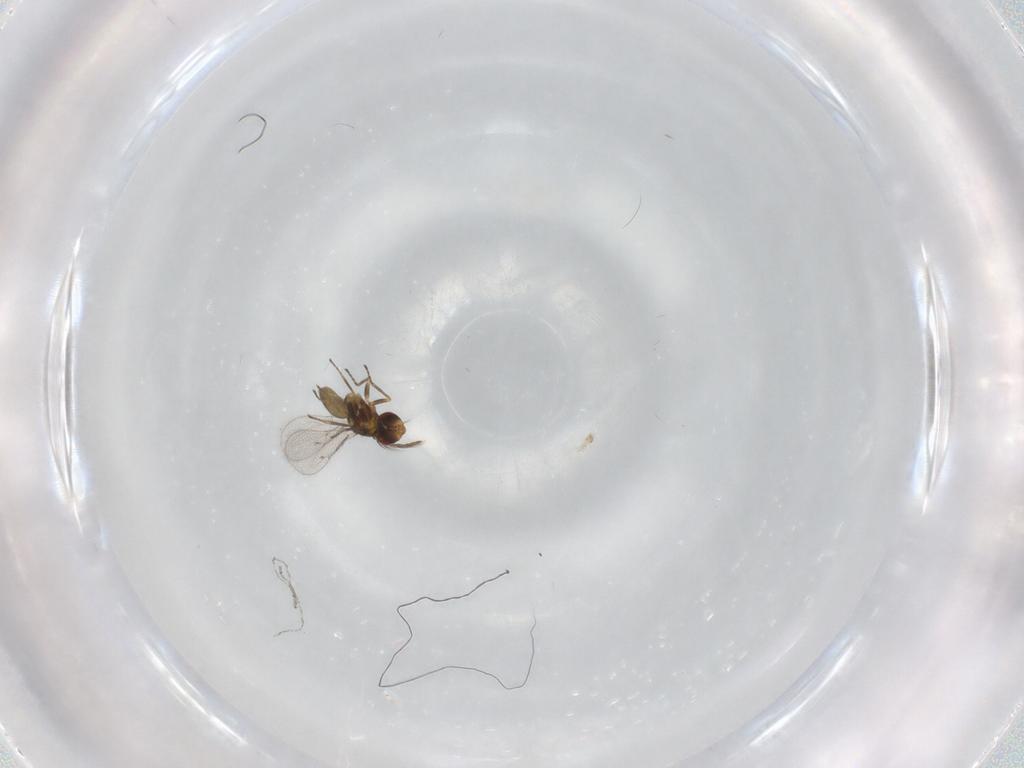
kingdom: Animalia
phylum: Arthropoda
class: Insecta
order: Hymenoptera
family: Eulophidae
